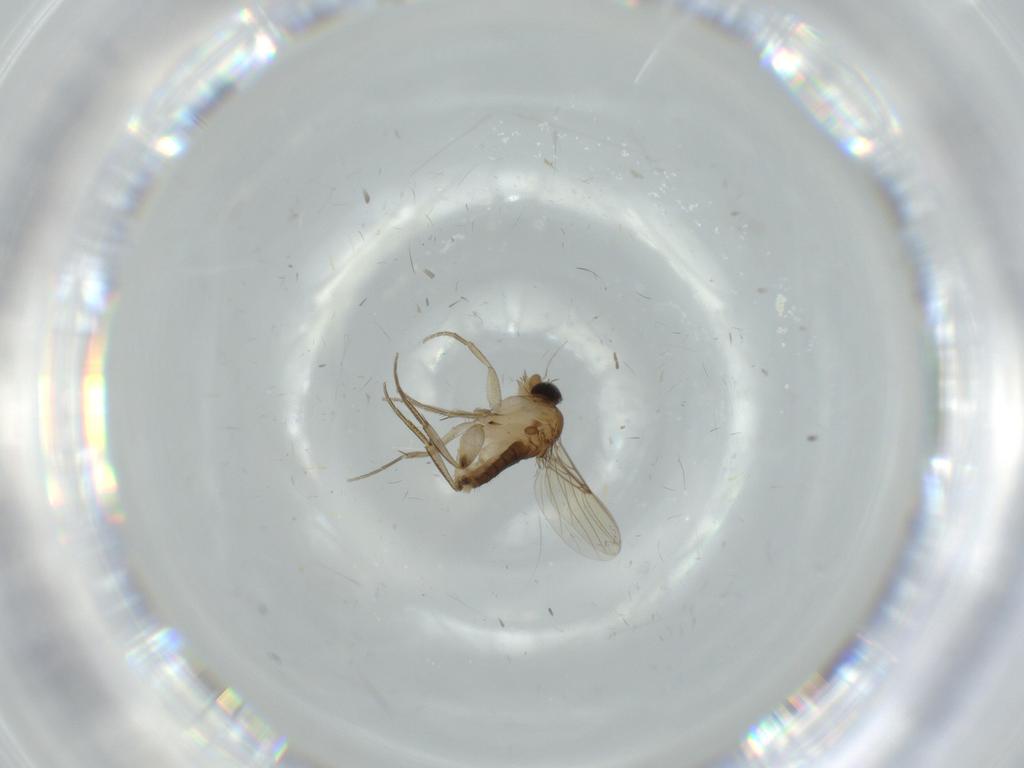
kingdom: Animalia
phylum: Arthropoda
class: Insecta
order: Diptera
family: Phoridae
